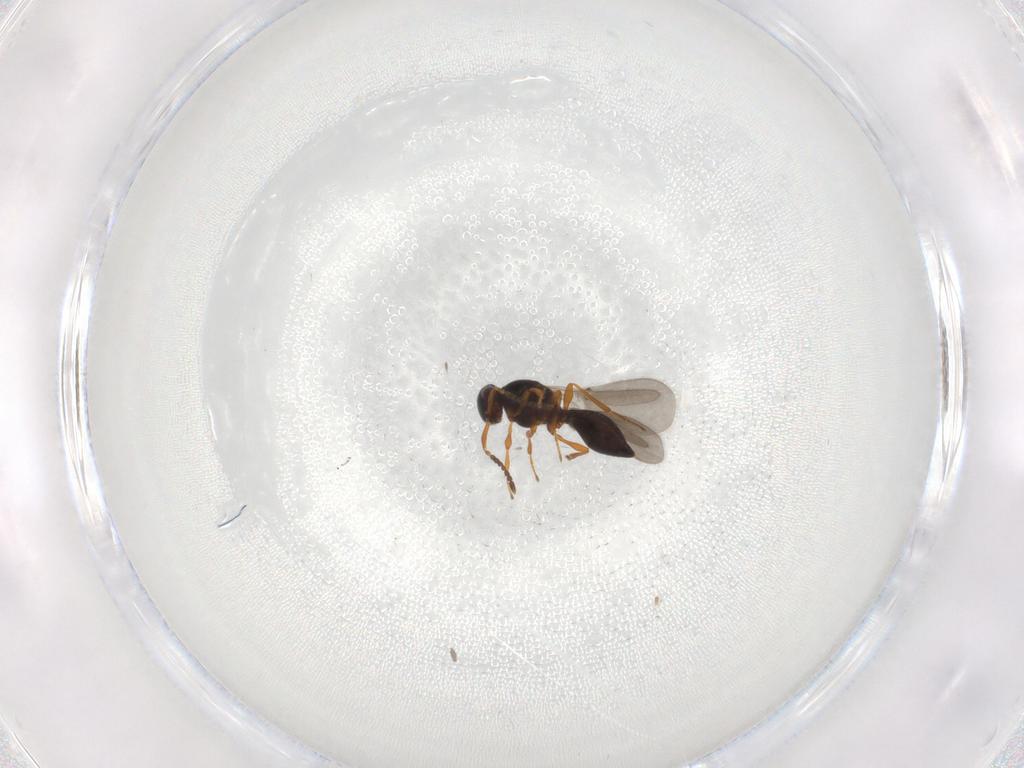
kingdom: Animalia
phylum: Arthropoda
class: Insecta
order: Hymenoptera
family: Platygastridae
